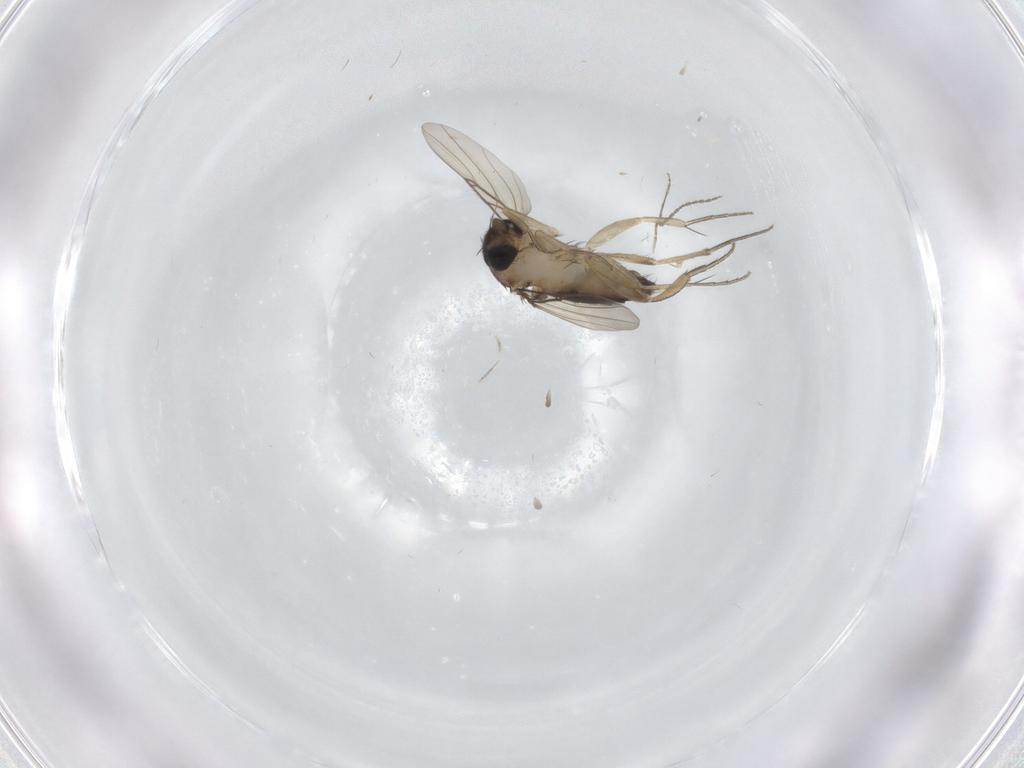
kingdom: Animalia
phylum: Arthropoda
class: Insecta
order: Diptera
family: Phoridae
